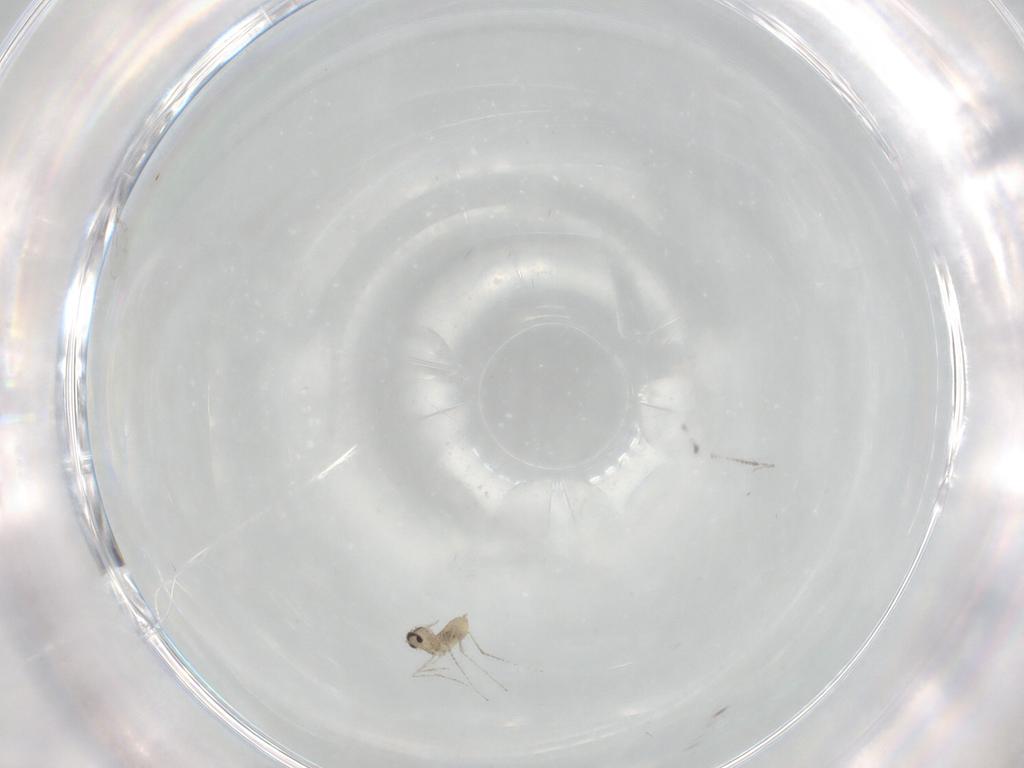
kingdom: Animalia
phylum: Arthropoda
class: Insecta
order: Diptera
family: Cecidomyiidae
